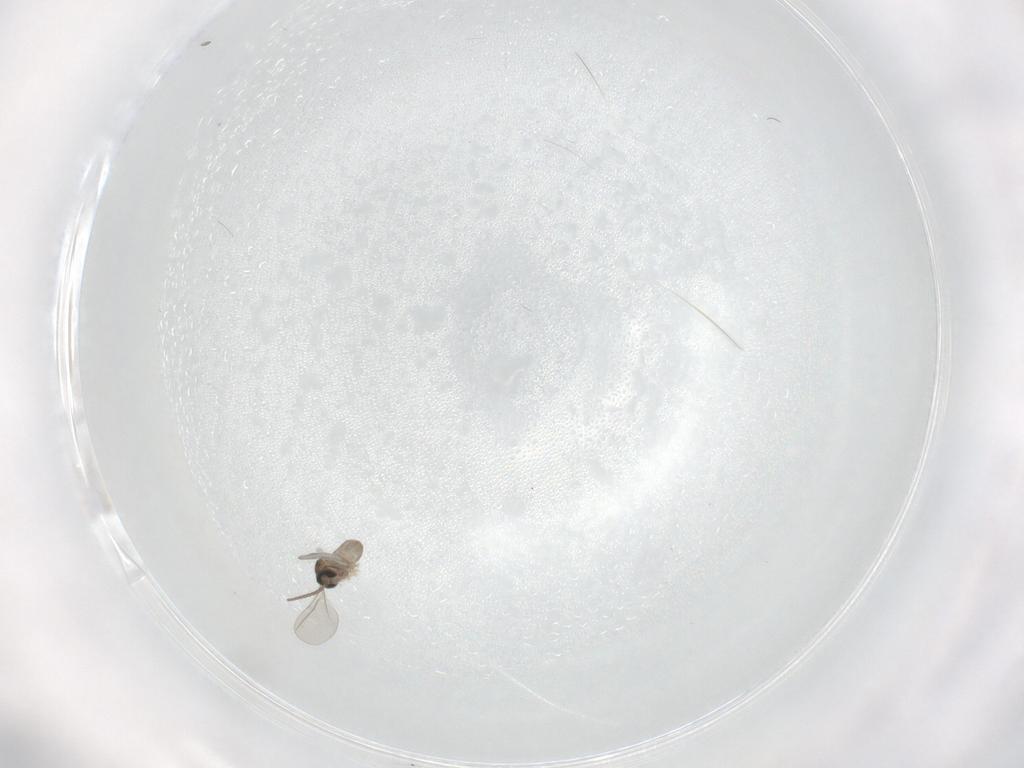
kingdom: Animalia
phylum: Arthropoda
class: Insecta
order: Diptera
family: Cecidomyiidae
